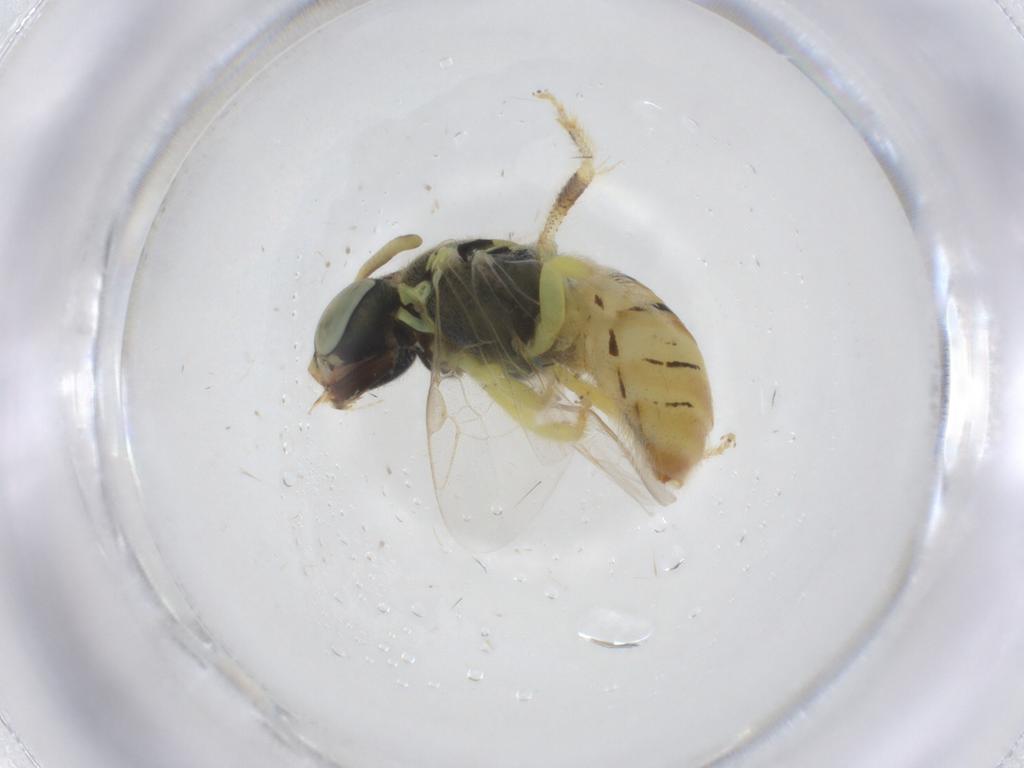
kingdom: Animalia
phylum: Arthropoda
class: Insecta
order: Hymenoptera
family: Halictidae
